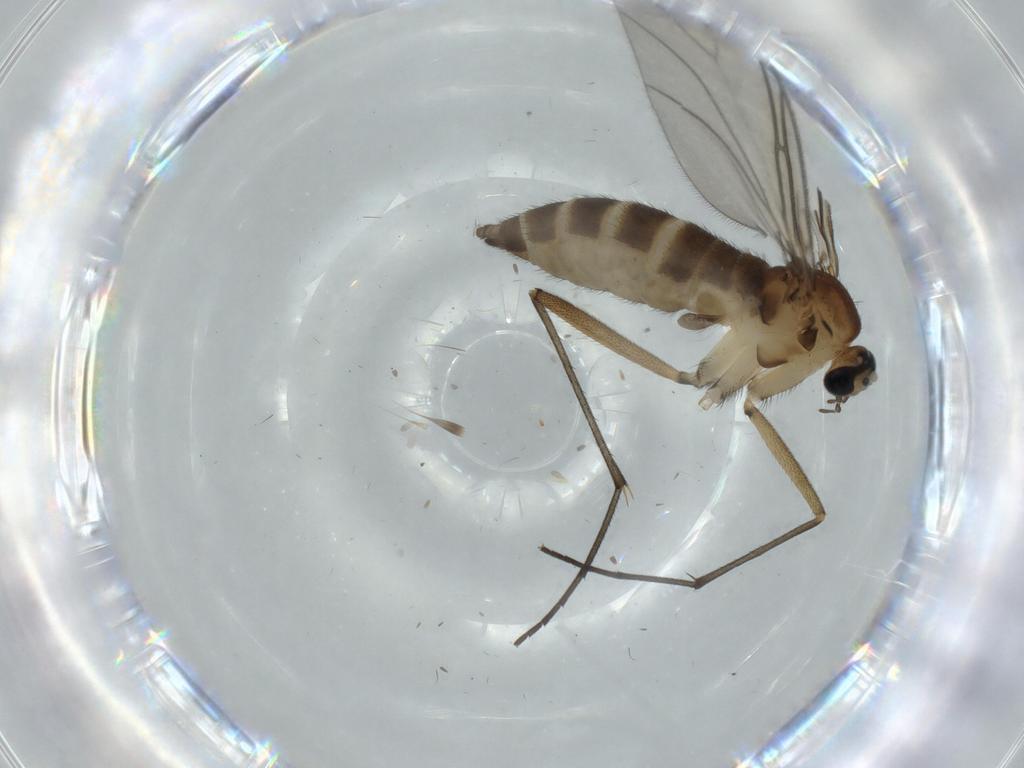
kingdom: Animalia
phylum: Arthropoda
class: Insecta
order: Diptera
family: Sciaridae
